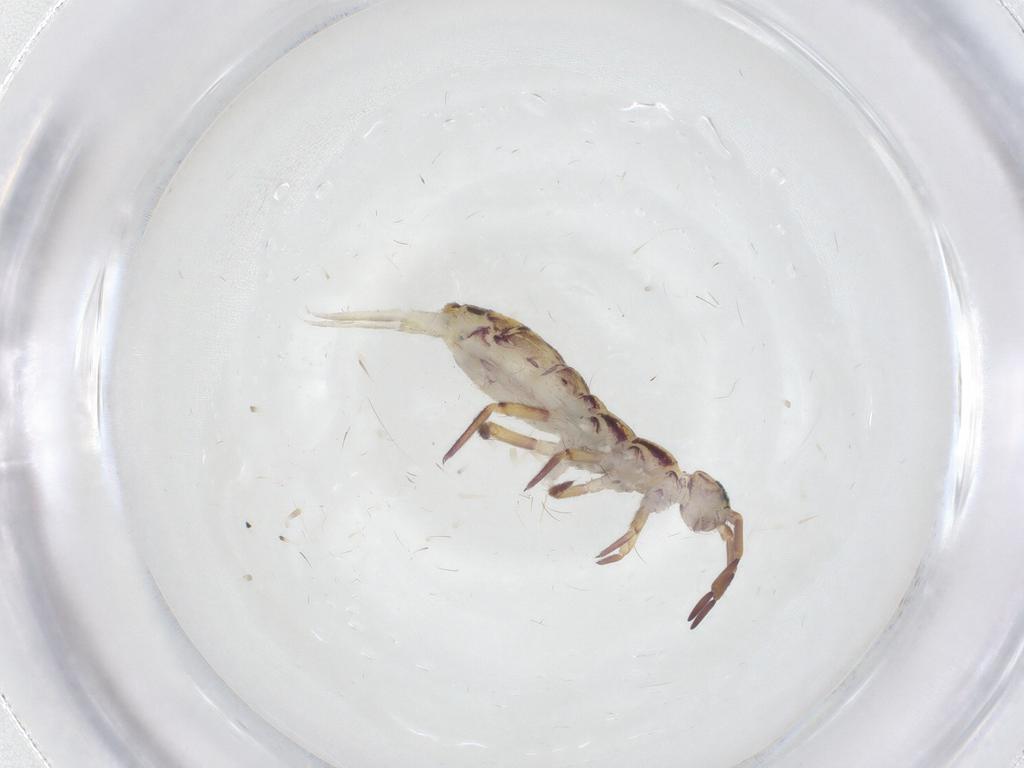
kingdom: Animalia
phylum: Arthropoda
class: Collembola
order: Entomobryomorpha
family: Isotomidae
